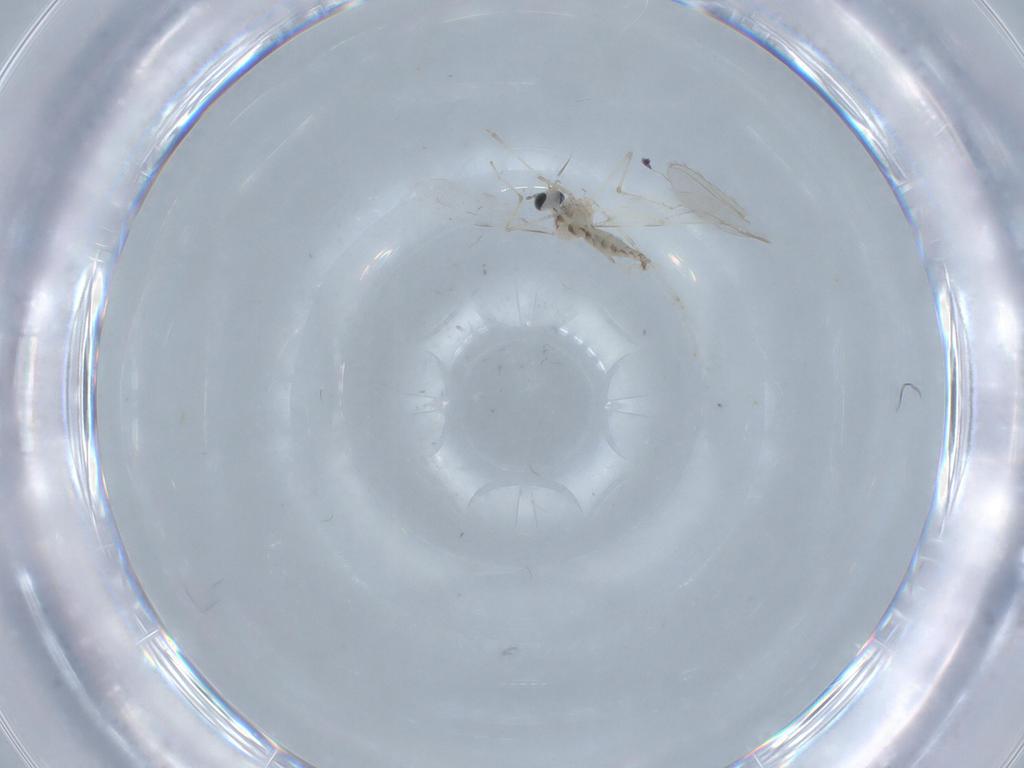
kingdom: Animalia
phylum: Arthropoda
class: Insecta
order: Diptera
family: Cecidomyiidae
